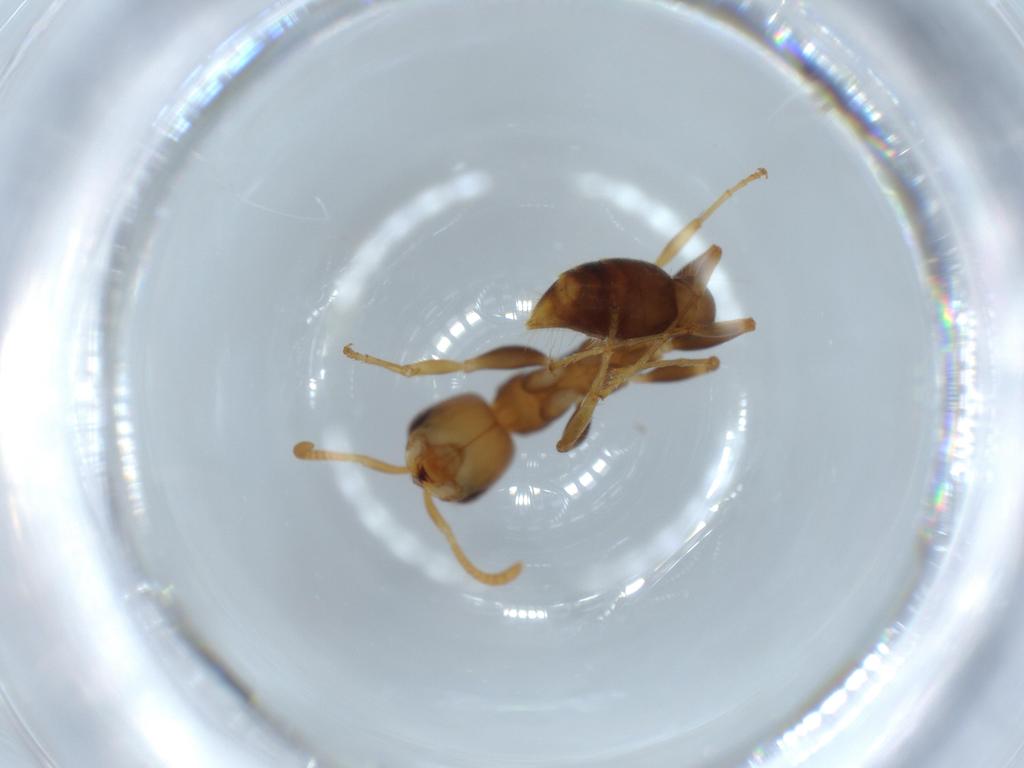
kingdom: Animalia
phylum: Arthropoda
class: Insecta
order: Hymenoptera
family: Formicidae
